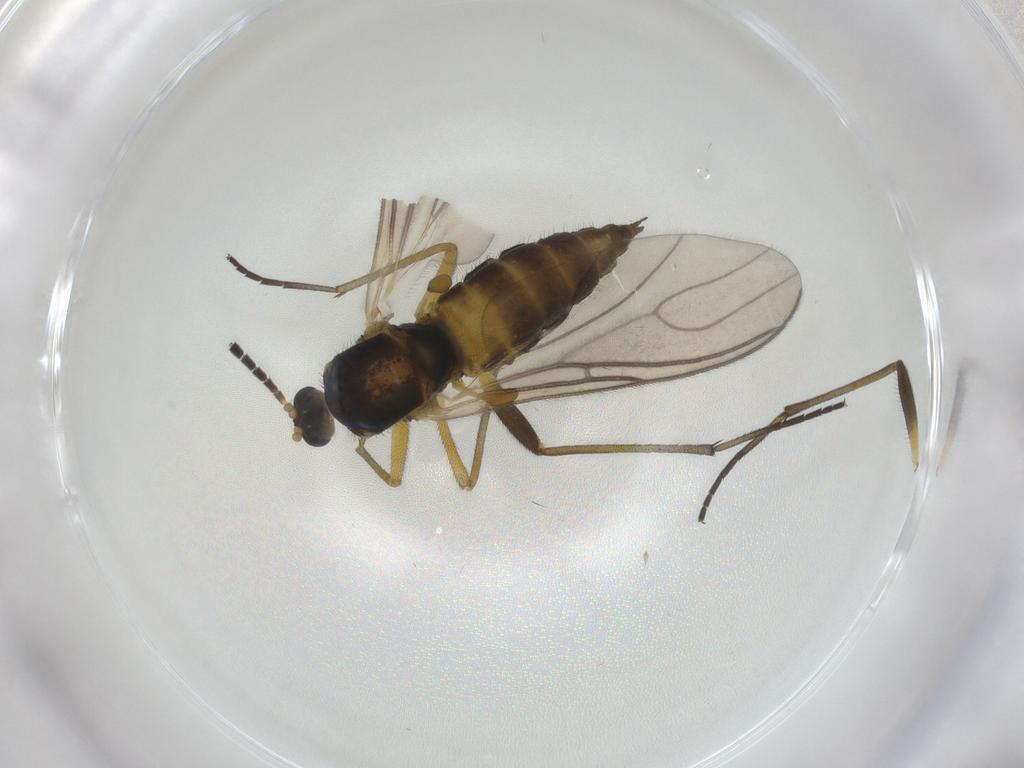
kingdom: Animalia
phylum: Arthropoda
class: Insecta
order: Diptera
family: Sciaridae
